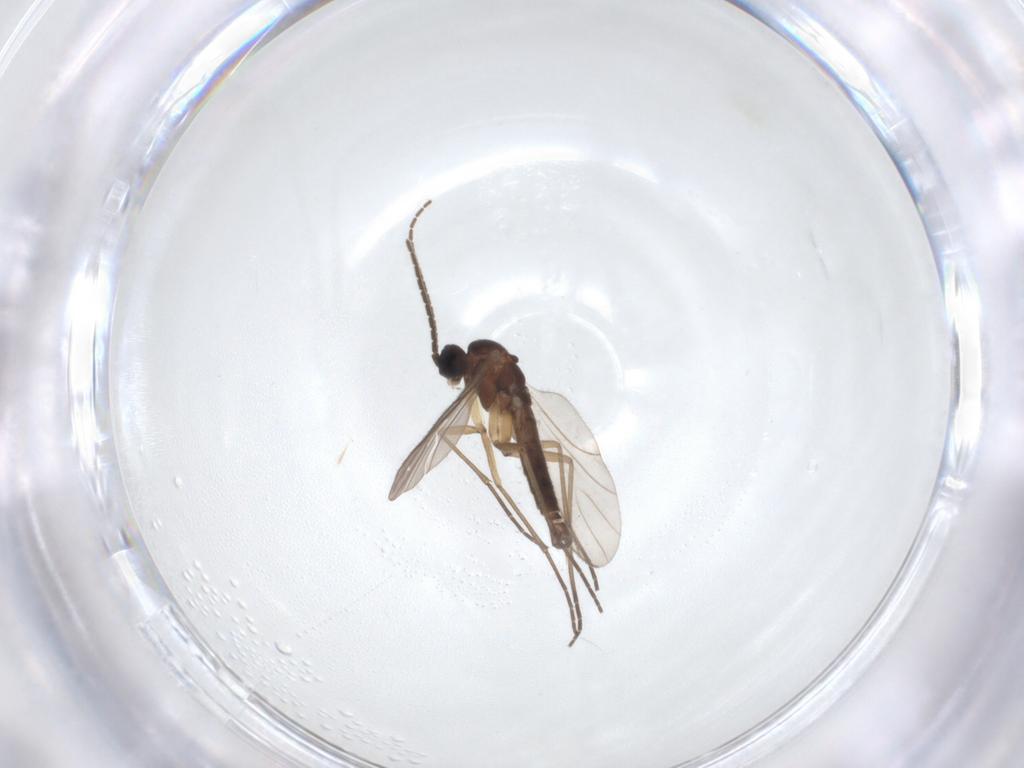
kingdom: Animalia
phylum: Arthropoda
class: Insecta
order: Diptera
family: Sciaridae
